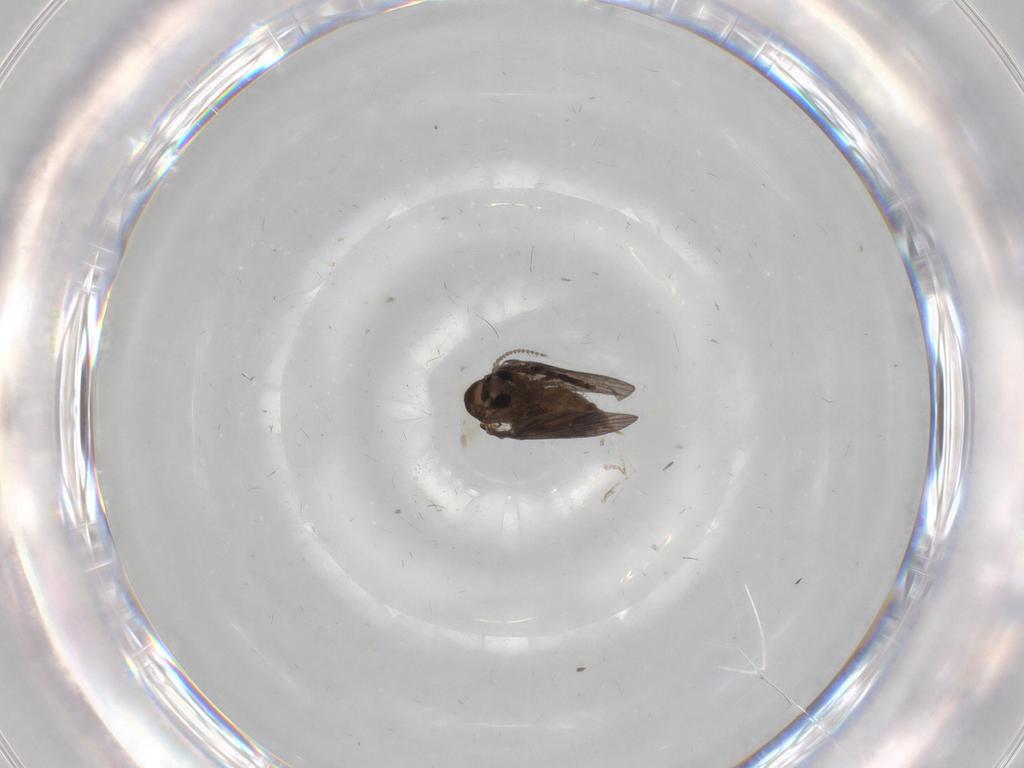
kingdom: Animalia
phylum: Arthropoda
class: Insecta
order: Diptera
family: Psychodidae
